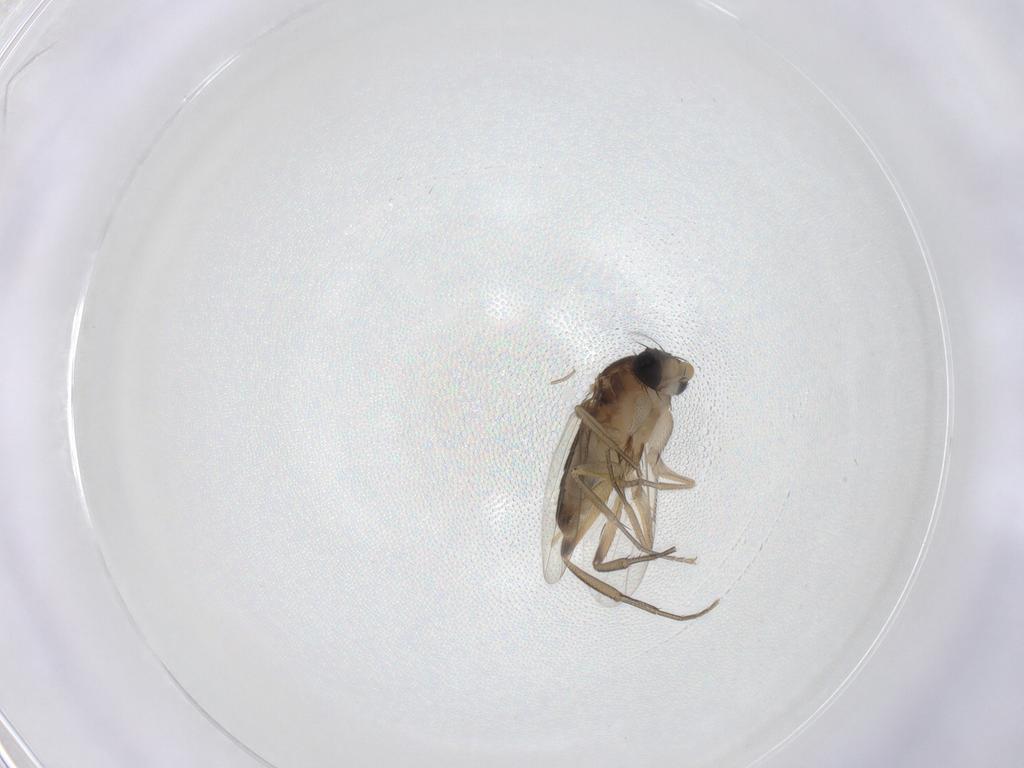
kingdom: Animalia
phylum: Arthropoda
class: Insecta
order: Diptera
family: Phoridae
